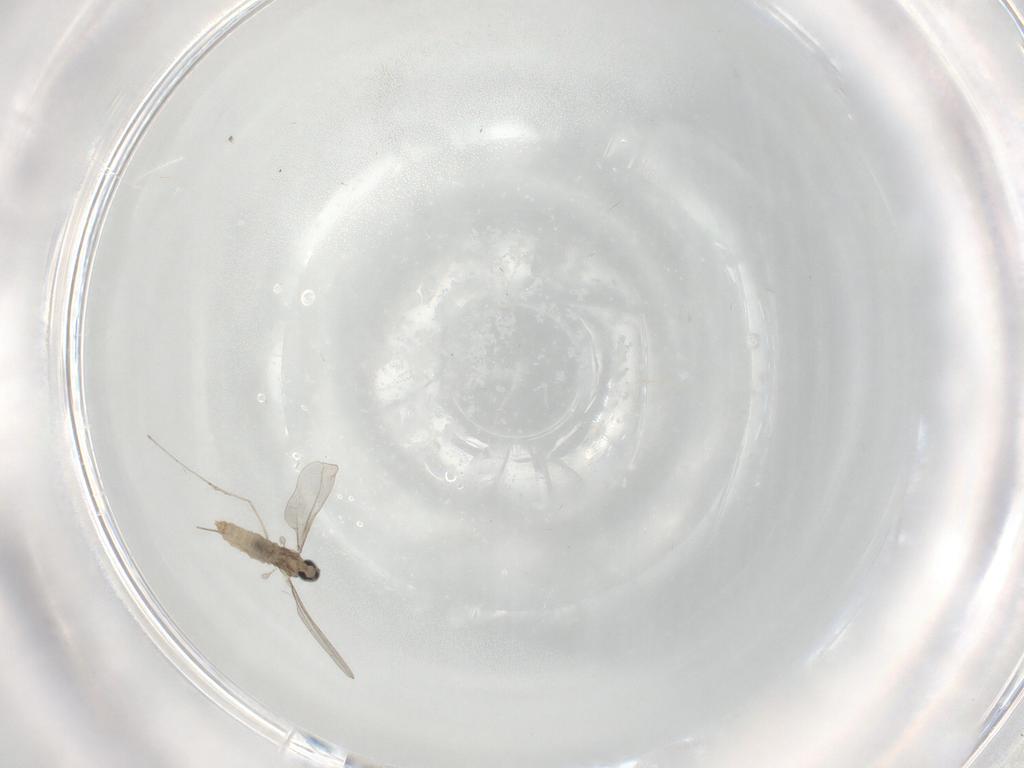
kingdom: Animalia
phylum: Arthropoda
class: Insecta
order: Diptera
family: Cecidomyiidae
